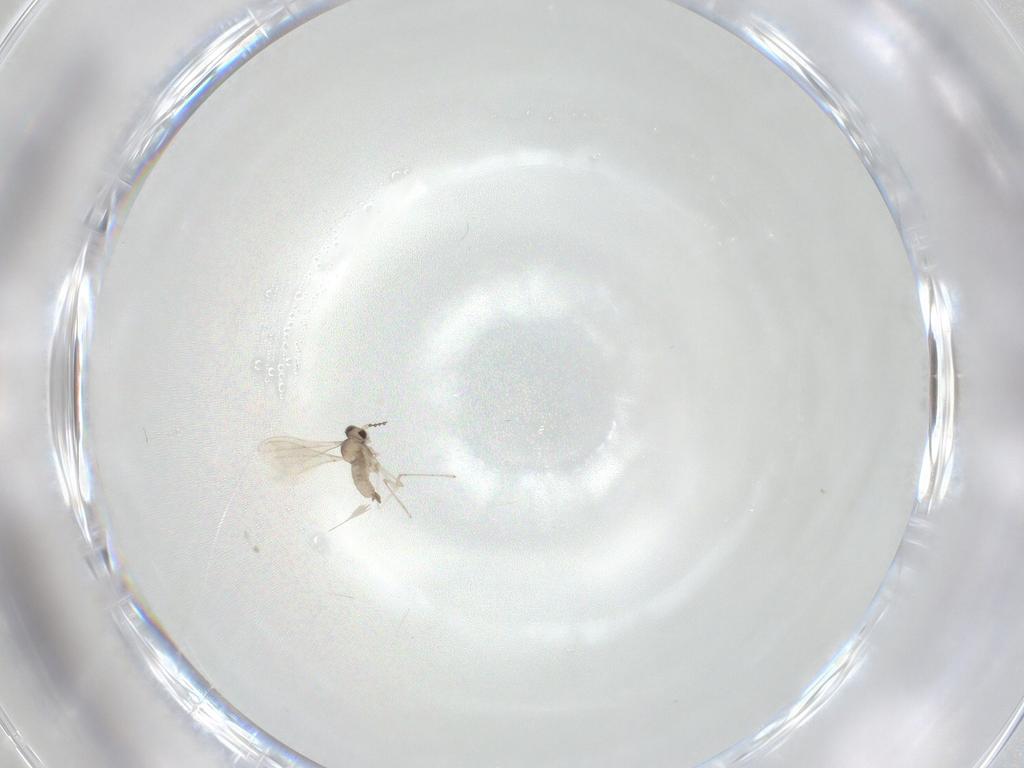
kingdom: Animalia
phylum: Arthropoda
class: Insecta
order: Diptera
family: Cecidomyiidae
